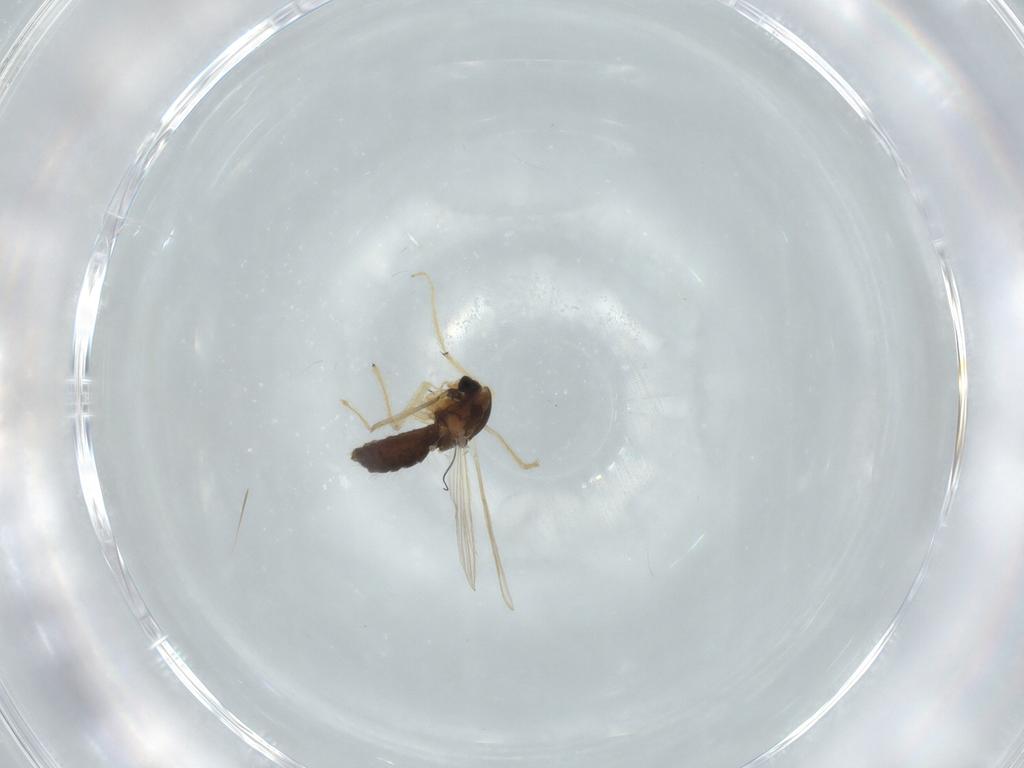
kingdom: Animalia
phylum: Arthropoda
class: Insecta
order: Diptera
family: Chironomidae
